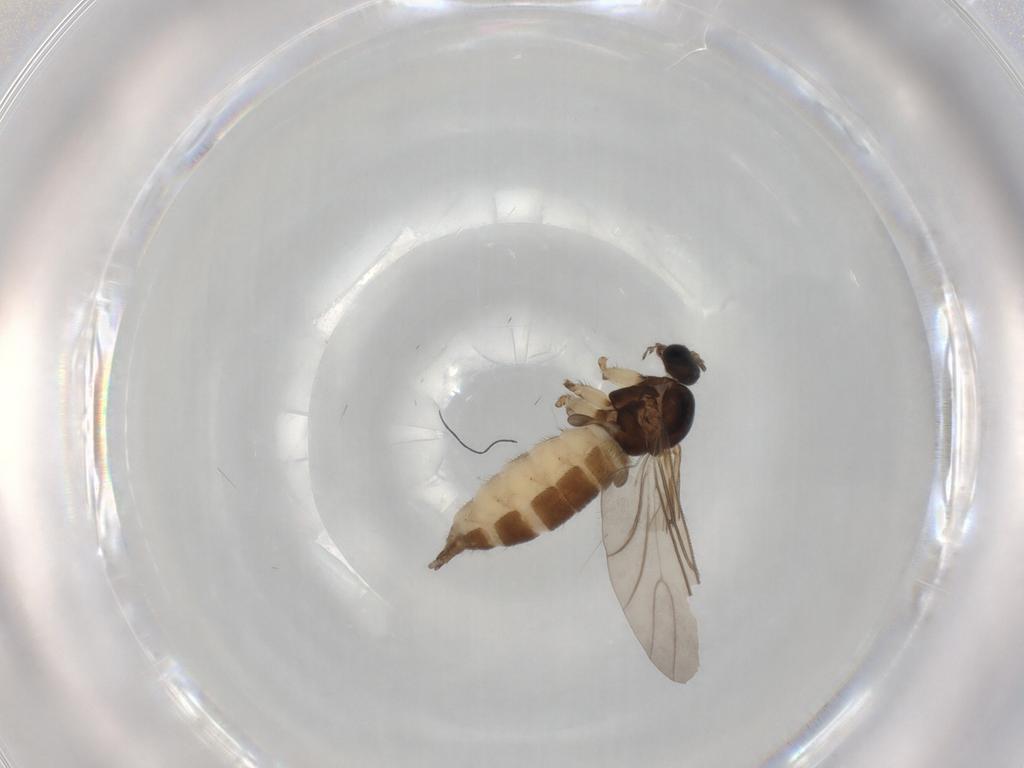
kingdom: Animalia
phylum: Arthropoda
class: Insecta
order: Diptera
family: Sciaridae
